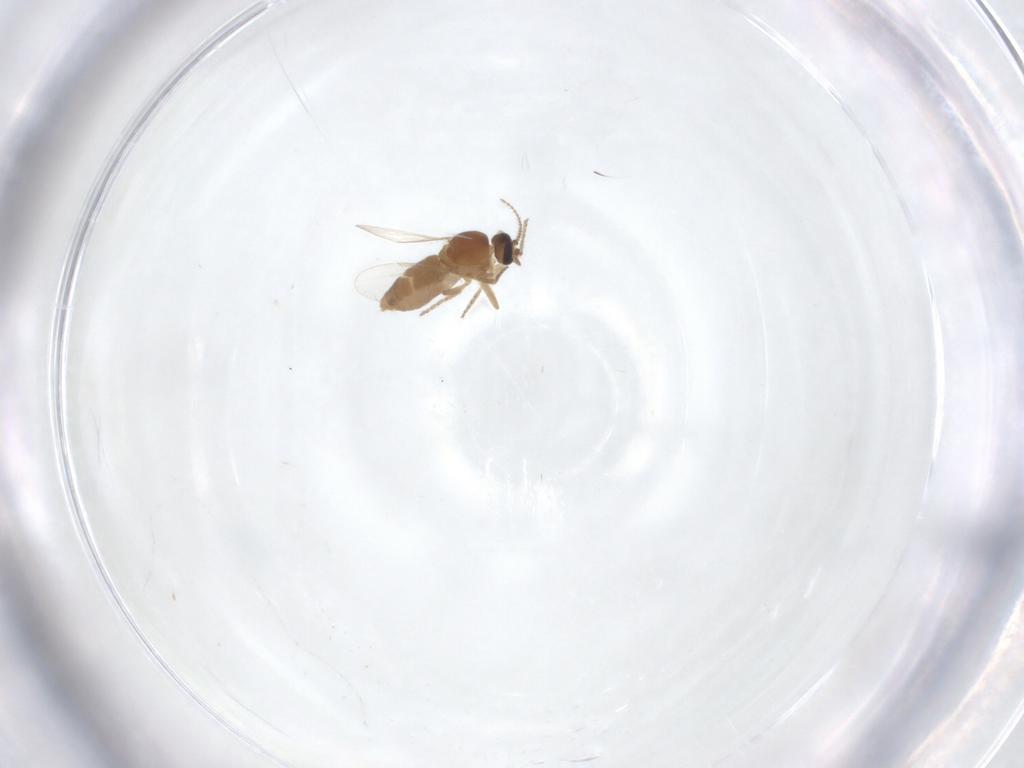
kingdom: Animalia
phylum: Arthropoda
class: Insecta
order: Diptera
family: Ceratopogonidae
